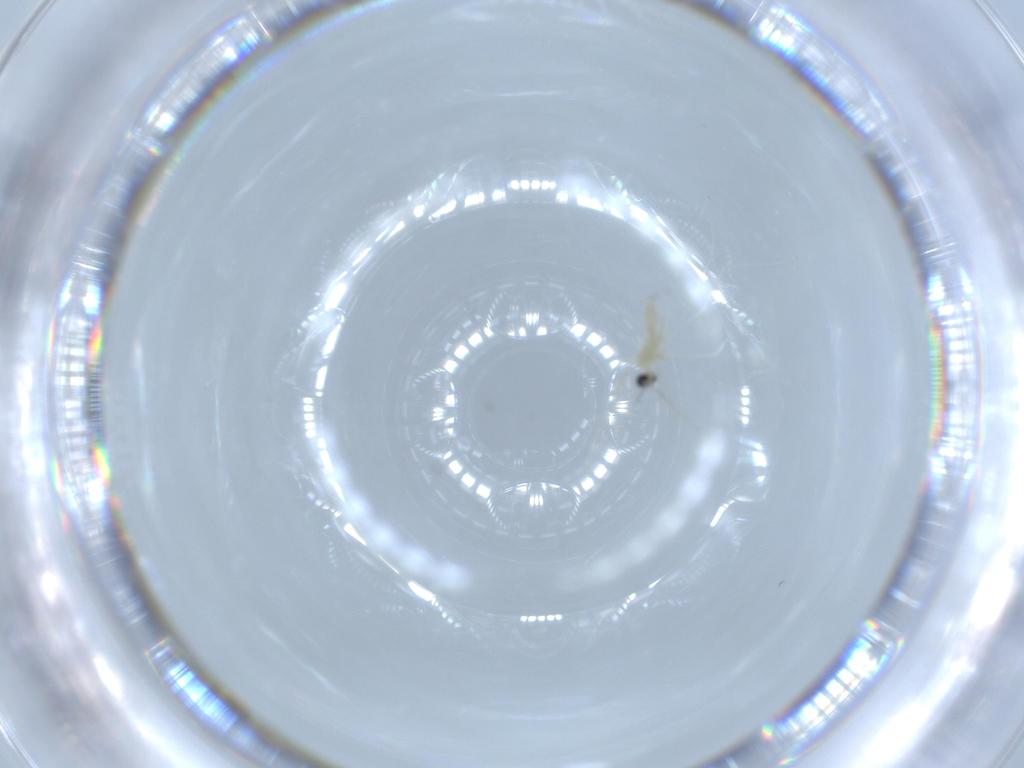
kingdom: Animalia
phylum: Arthropoda
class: Insecta
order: Diptera
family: Cecidomyiidae
